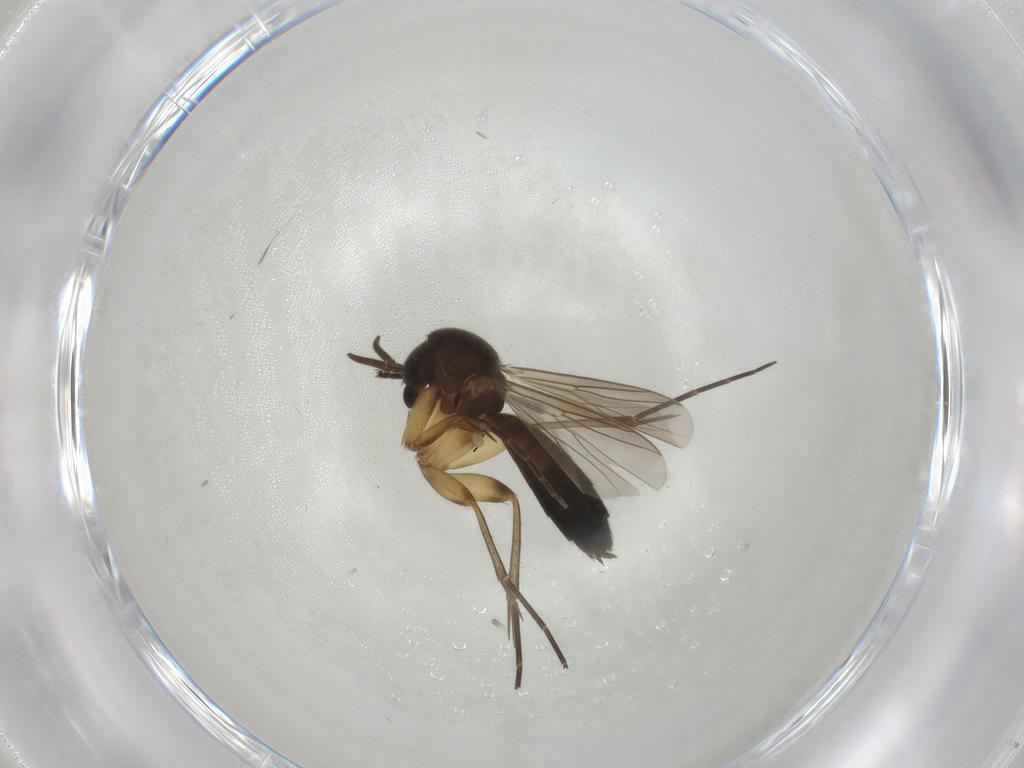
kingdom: Animalia
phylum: Arthropoda
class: Insecta
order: Diptera
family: Mycetophilidae
